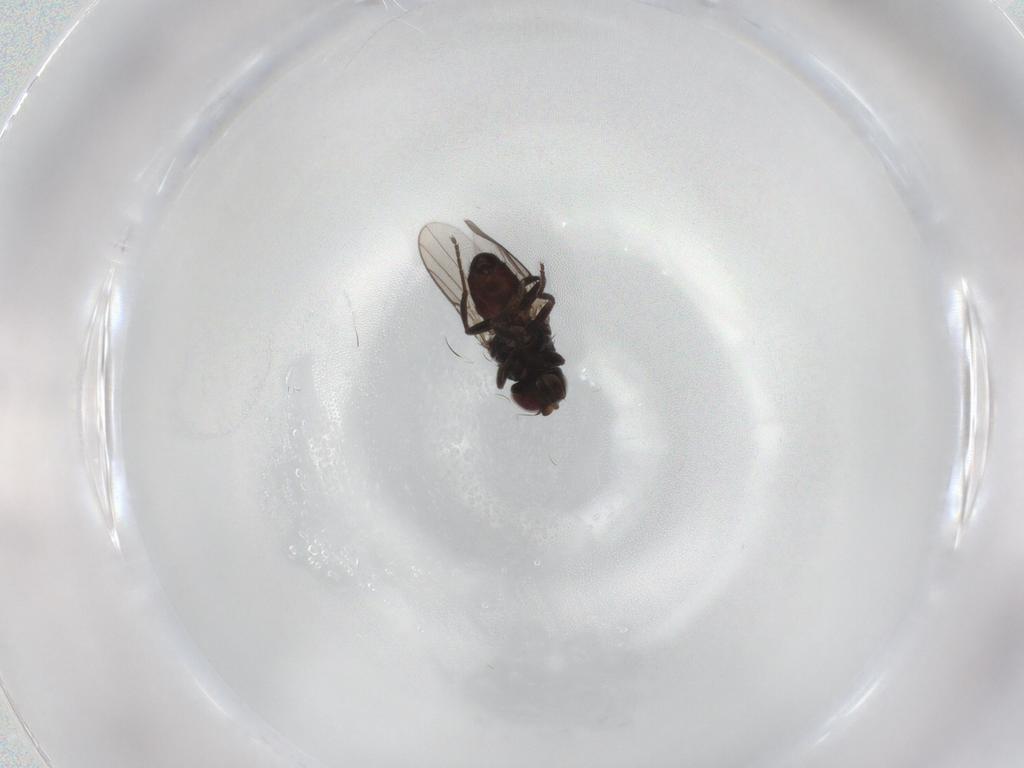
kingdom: Animalia
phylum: Arthropoda
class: Insecta
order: Diptera
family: Chloropidae
